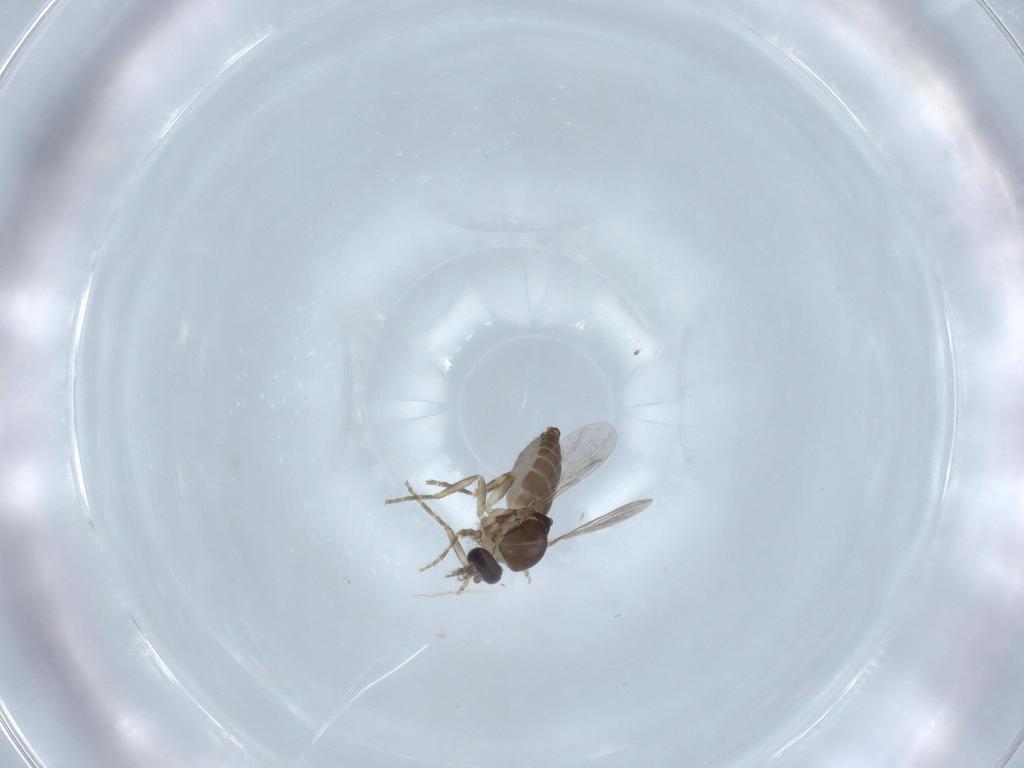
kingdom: Animalia
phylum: Arthropoda
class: Insecta
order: Diptera
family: Ceratopogonidae
